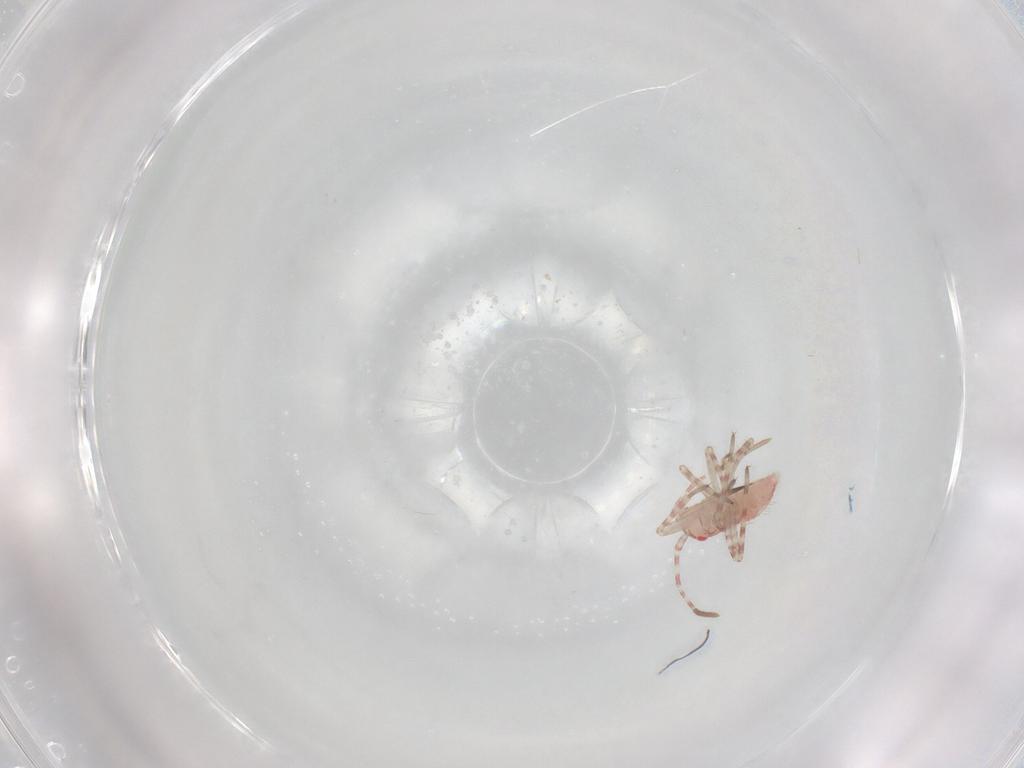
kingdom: Animalia
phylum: Arthropoda
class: Insecta
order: Hemiptera
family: Miridae
